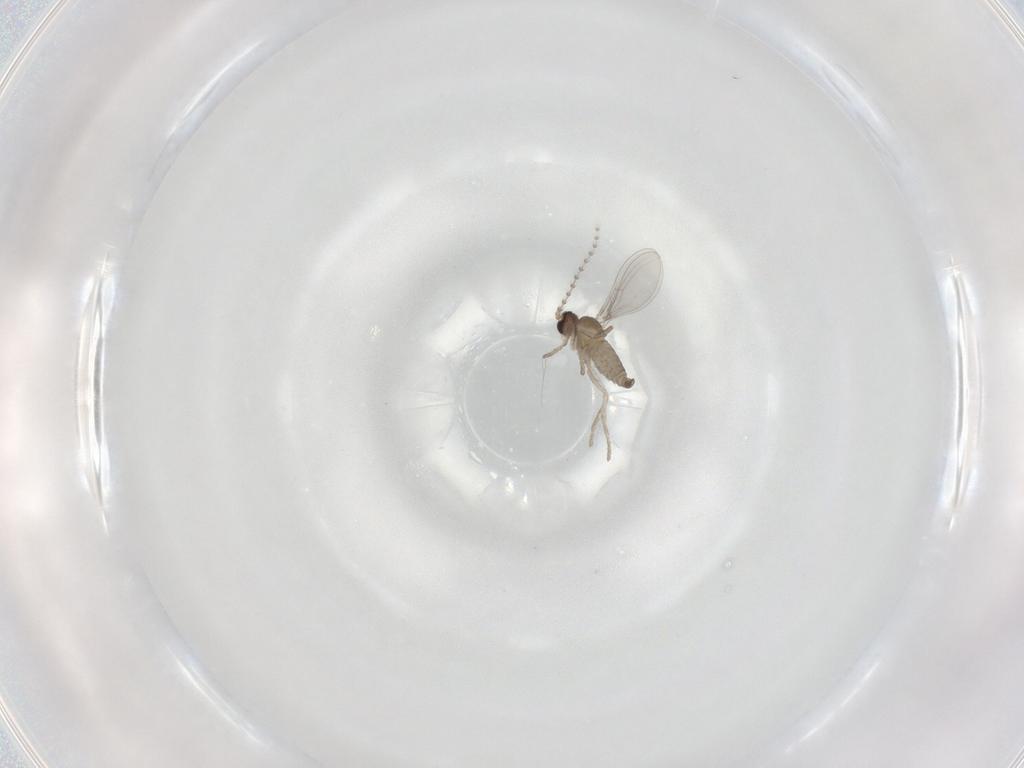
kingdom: Animalia
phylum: Arthropoda
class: Insecta
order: Diptera
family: Cecidomyiidae
